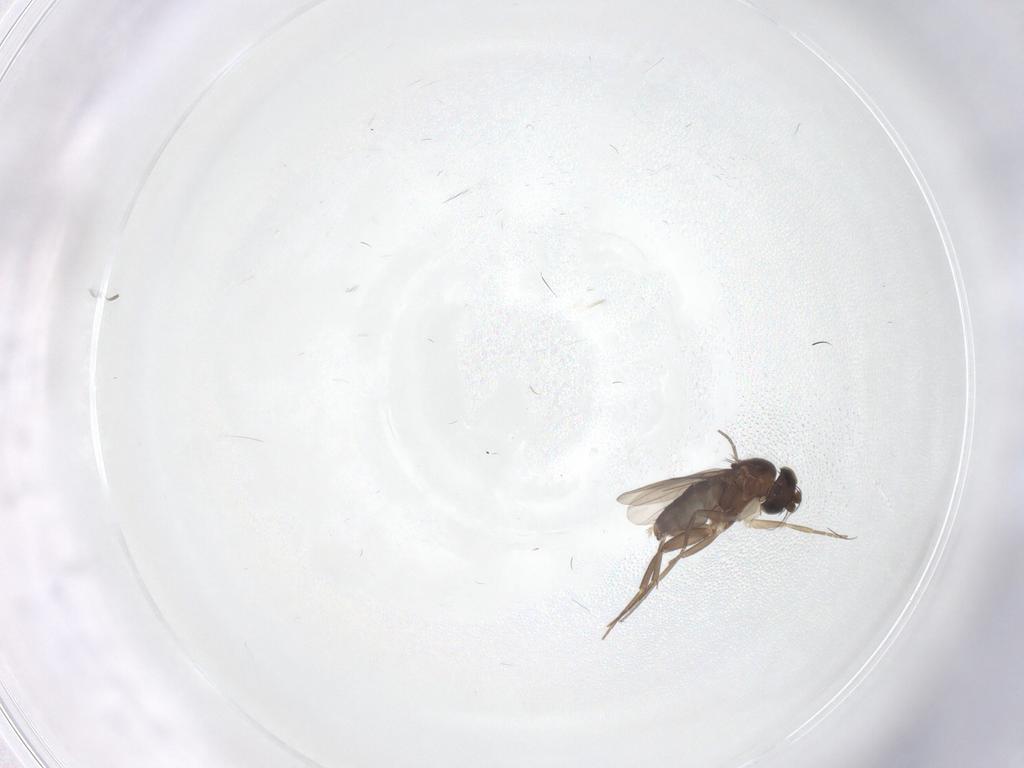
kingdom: Animalia
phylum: Arthropoda
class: Insecta
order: Diptera
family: Phoridae
